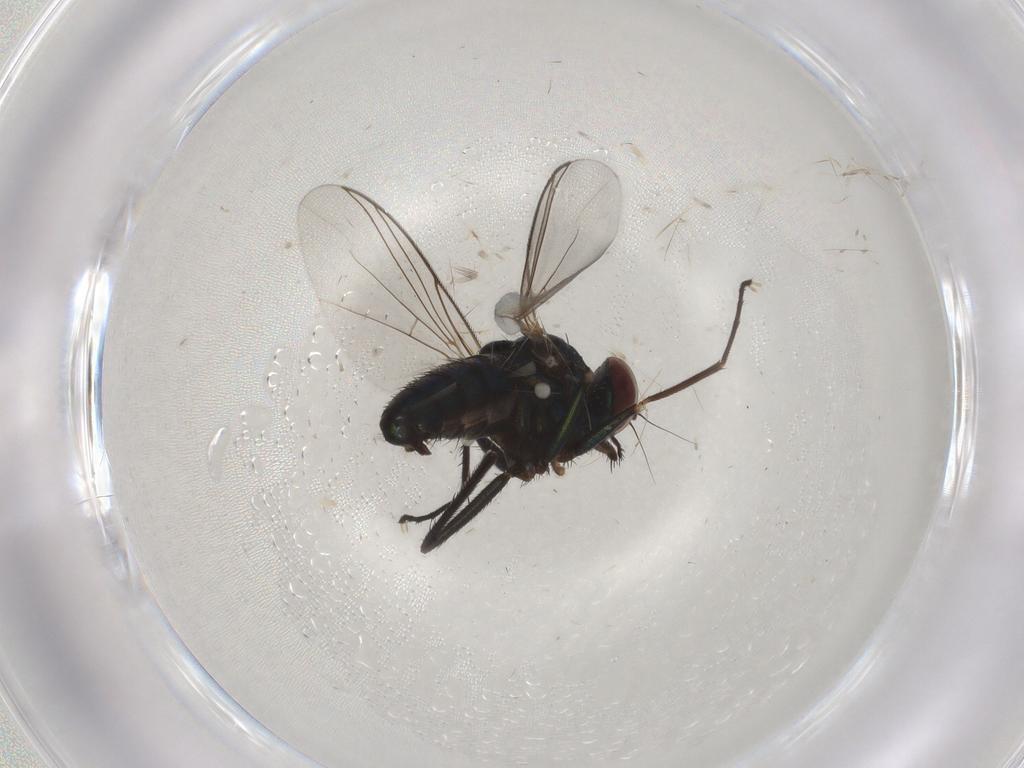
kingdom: Animalia
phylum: Arthropoda
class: Insecta
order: Diptera
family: Dolichopodidae
